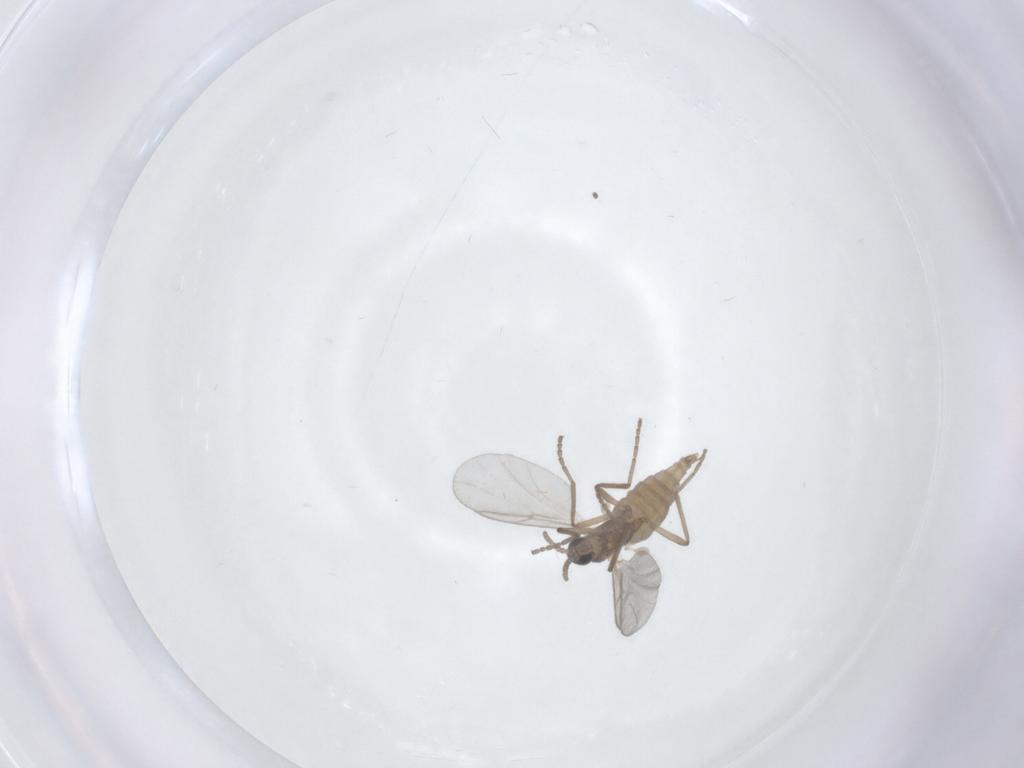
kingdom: Animalia
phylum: Arthropoda
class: Insecta
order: Diptera
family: Cecidomyiidae
